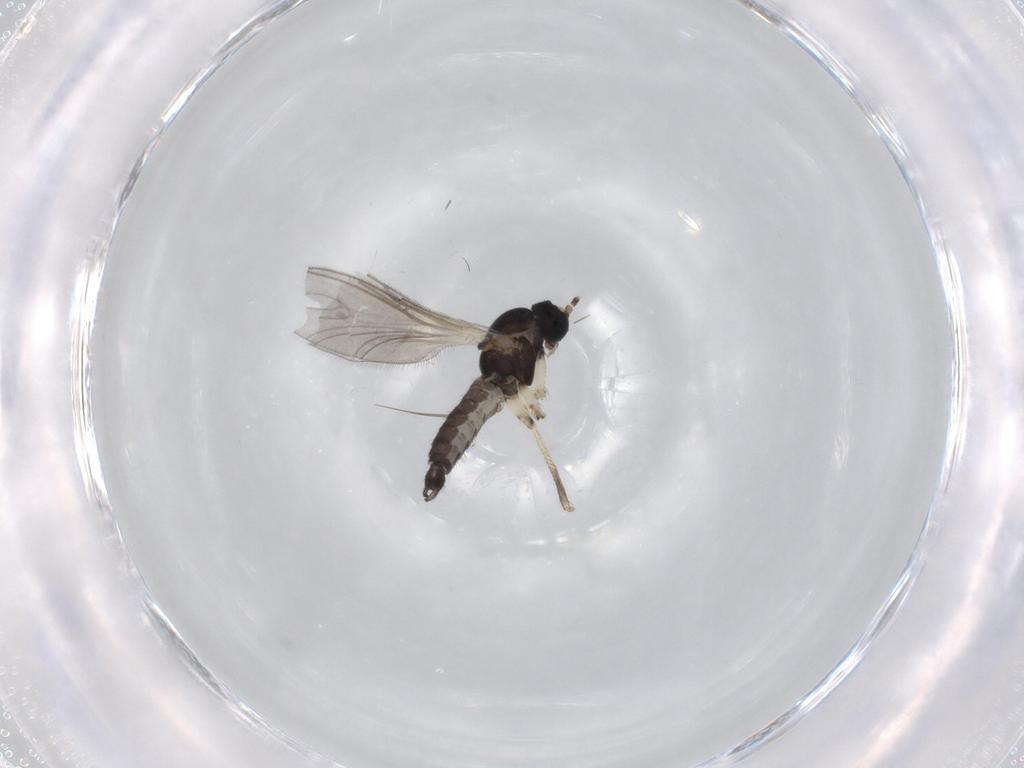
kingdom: Animalia
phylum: Arthropoda
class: Insecta
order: Diptera
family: Sciaridae
